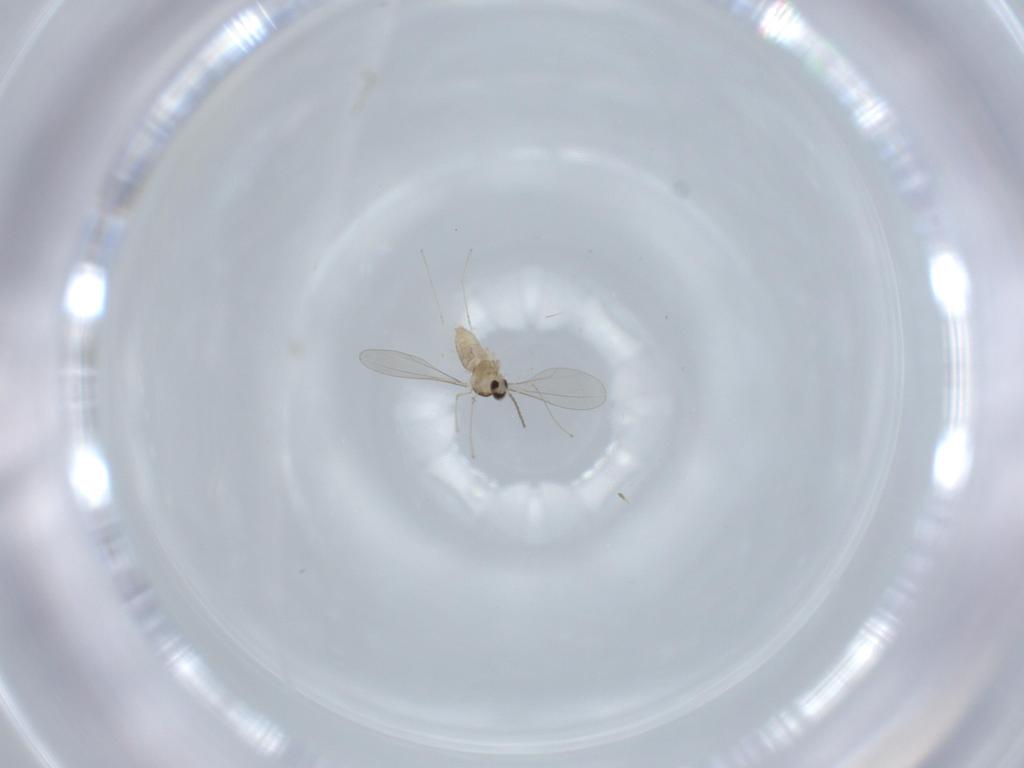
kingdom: Animalia
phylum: Arthropoda
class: Insecta
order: Diptera
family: Cecidomyiidae
